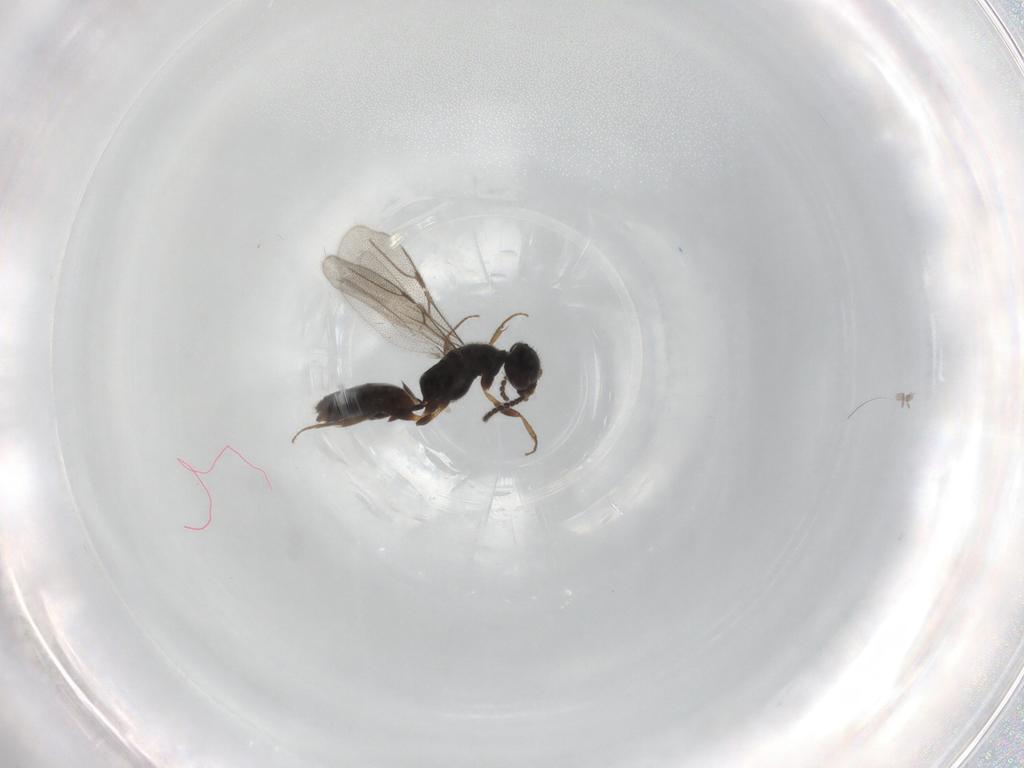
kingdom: Animalia
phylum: Arthropoda
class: Insecta
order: Hymenoptera
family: Bethylidae
